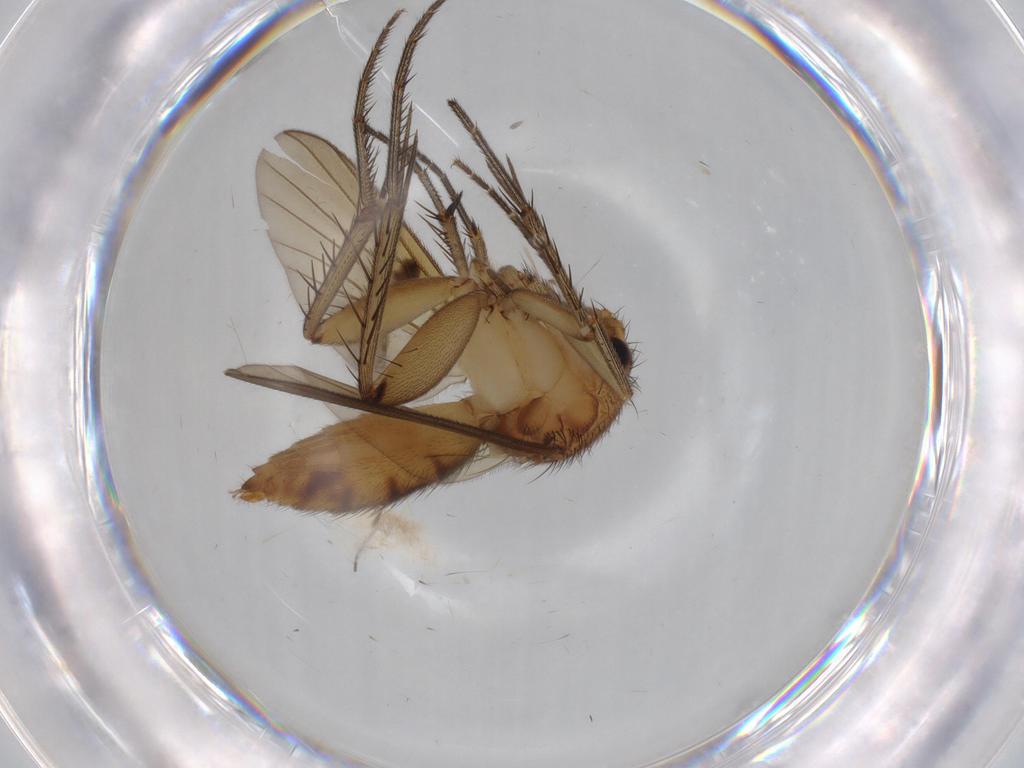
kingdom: Animalia
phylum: Arthropoda
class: Insecta
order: Diptera
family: Mycetophilidae
